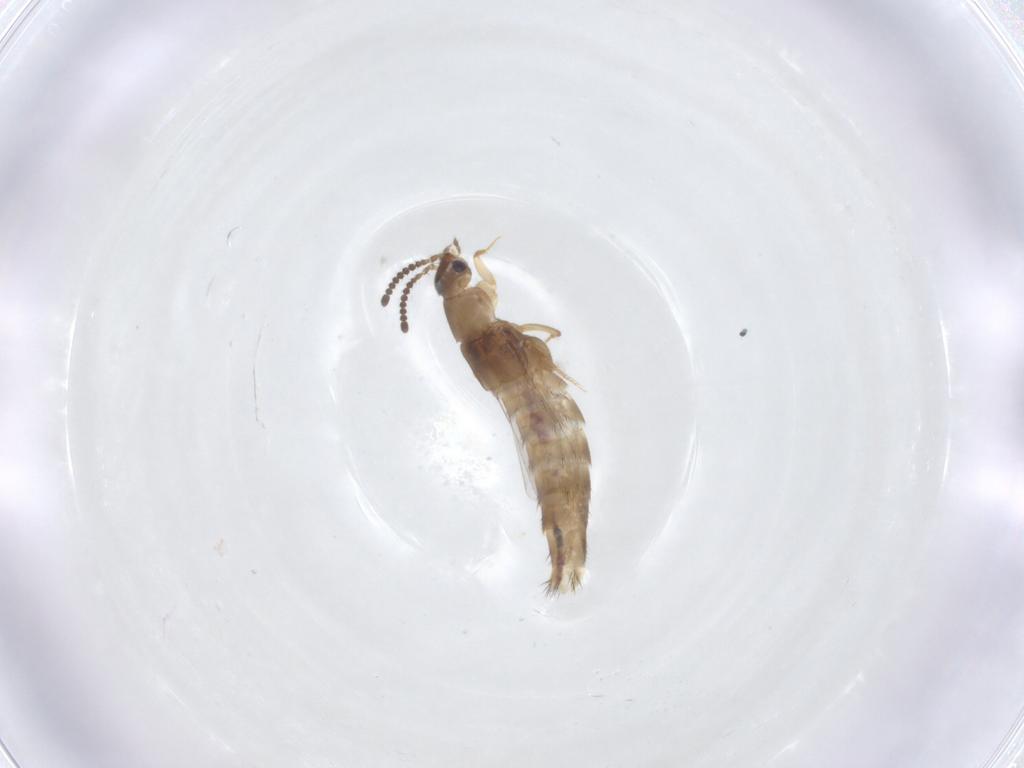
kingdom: Animalia
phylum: Arthropoda
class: Insecta
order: Coleoptera
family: Staphylinidae
